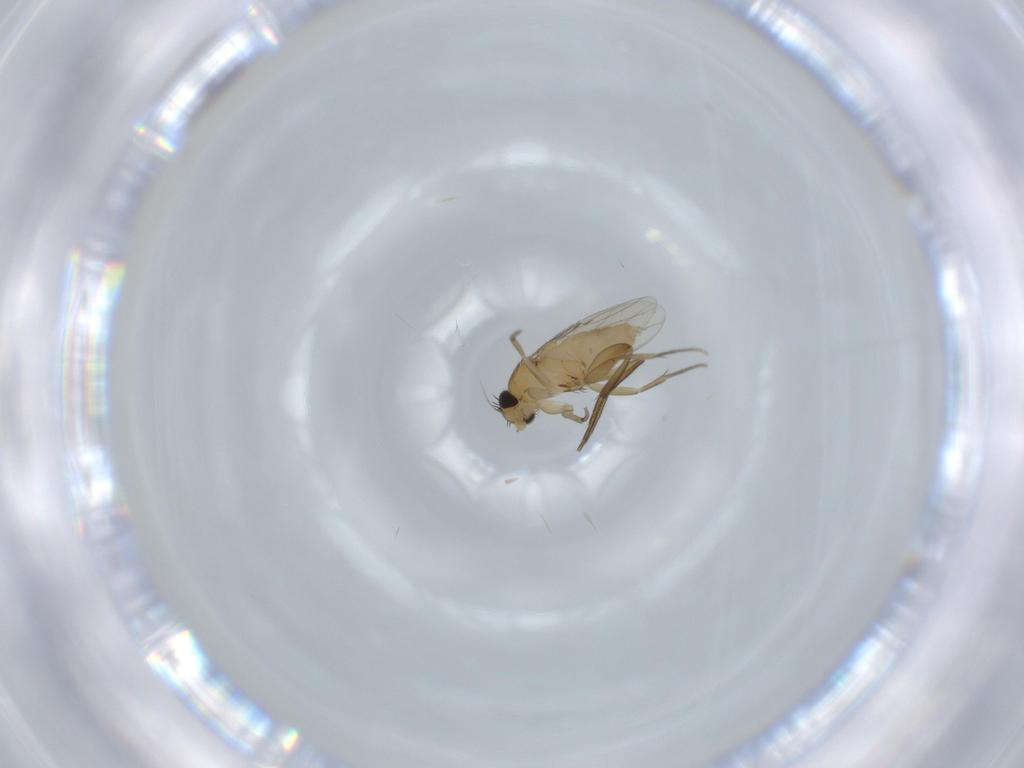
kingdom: Animalia
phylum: Arthropoda
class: Insecta
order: Diptera
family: Phoridae
